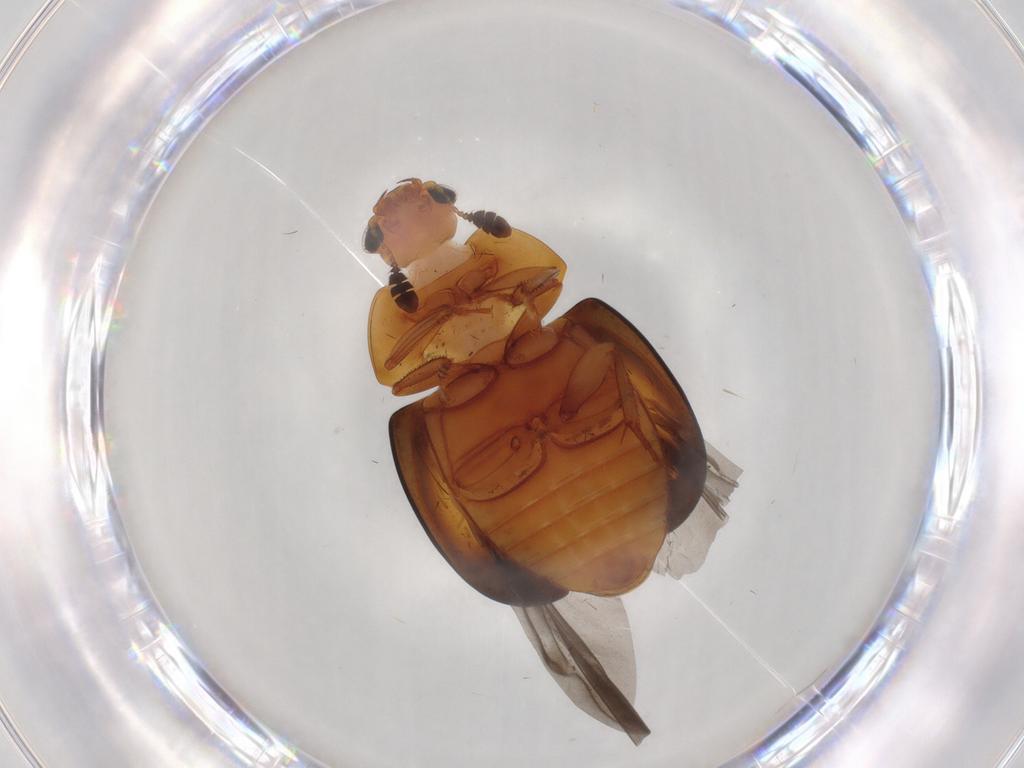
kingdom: Animalia
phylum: Arthropoda
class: Insecta
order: Coleoptera
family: Nitidulidae
